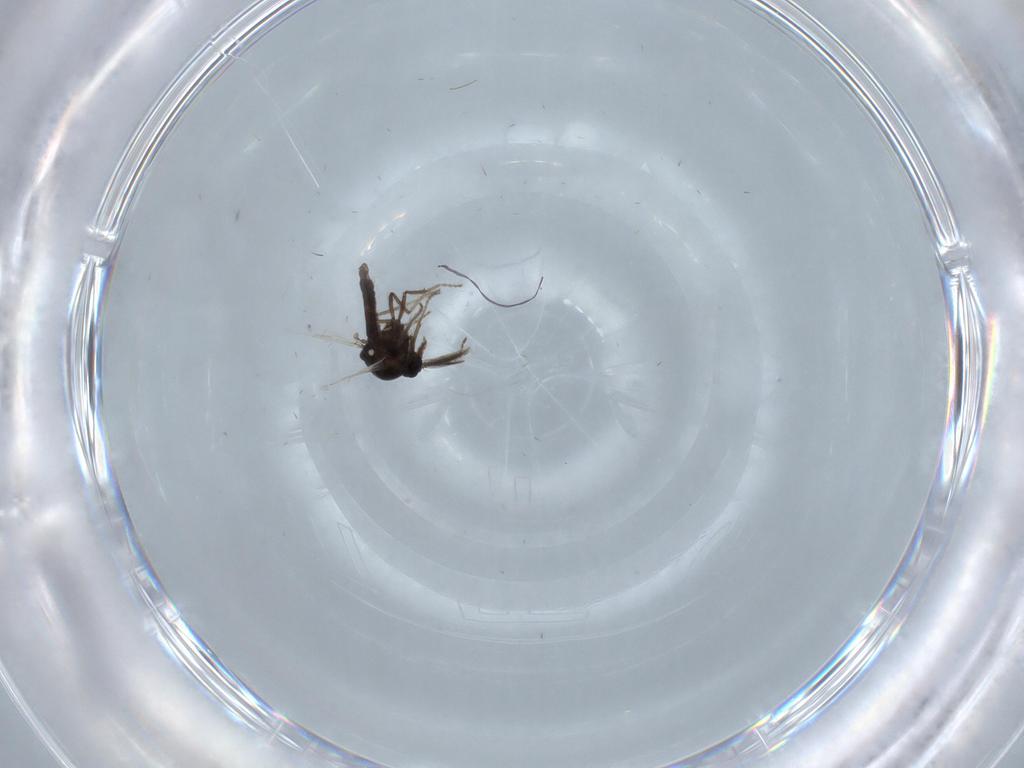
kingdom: Animalia
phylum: Arthropoda
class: Insecta
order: Diptera
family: Ceratopogonidae
